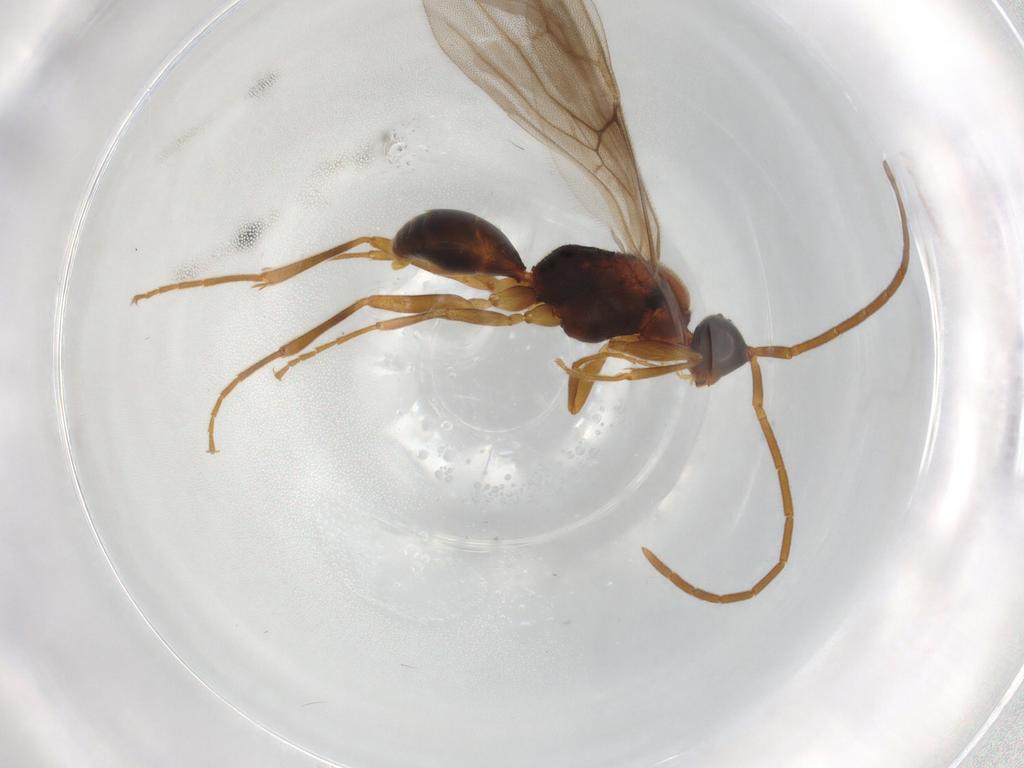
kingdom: Animalia
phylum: Arthropoda
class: Insecta
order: Hymenoptera
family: Embolemidae
